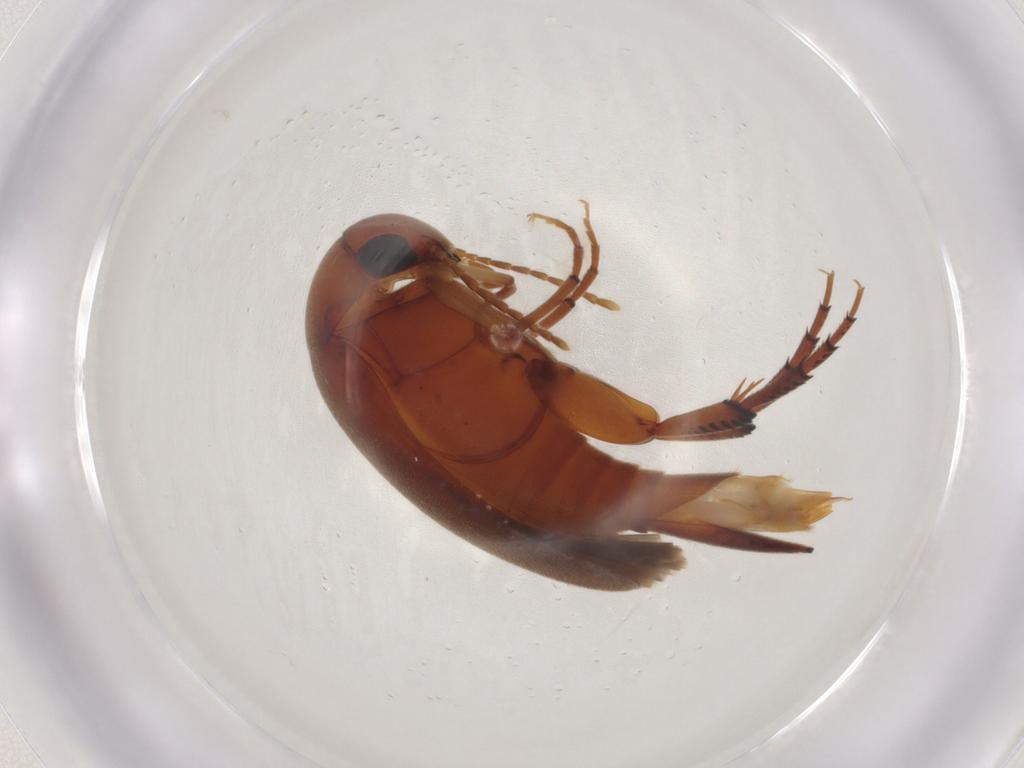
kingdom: Animalia
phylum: Arthropoda
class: Insecta
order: Coleoptera
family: Mordellidae
